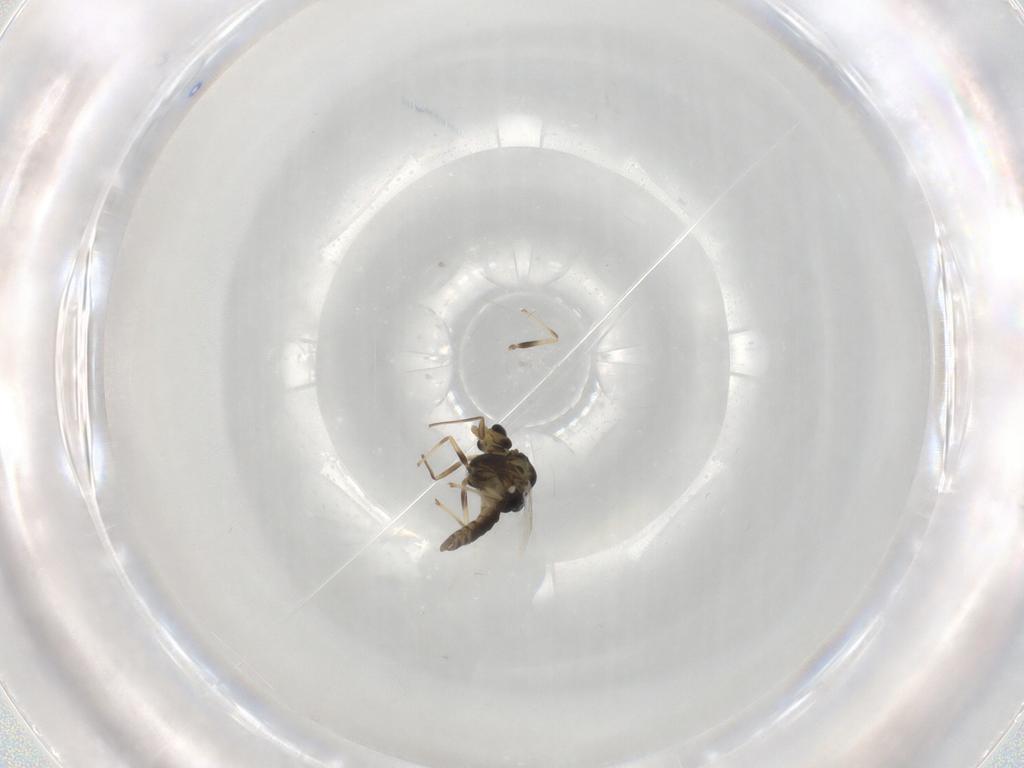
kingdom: Animalia
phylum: Arthropoda
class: Insecta
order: Diptera
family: Chironomidae
